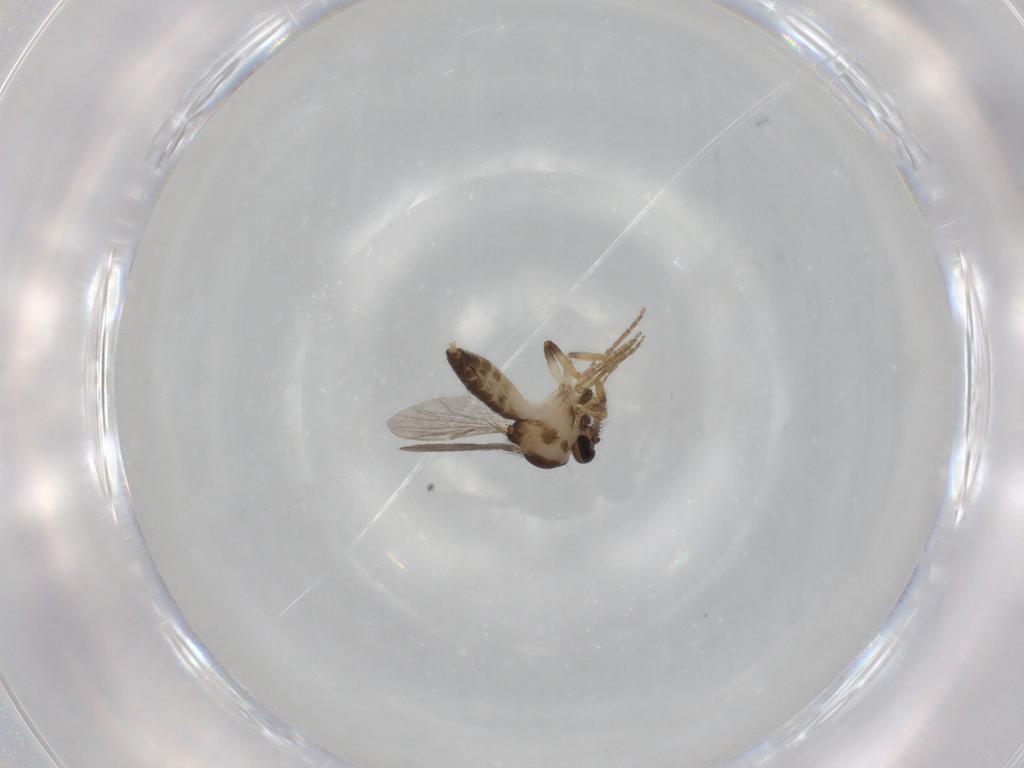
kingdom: Animalia
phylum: Arthropoda
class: Insecta
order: Diptera
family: Ceratopogonidae
